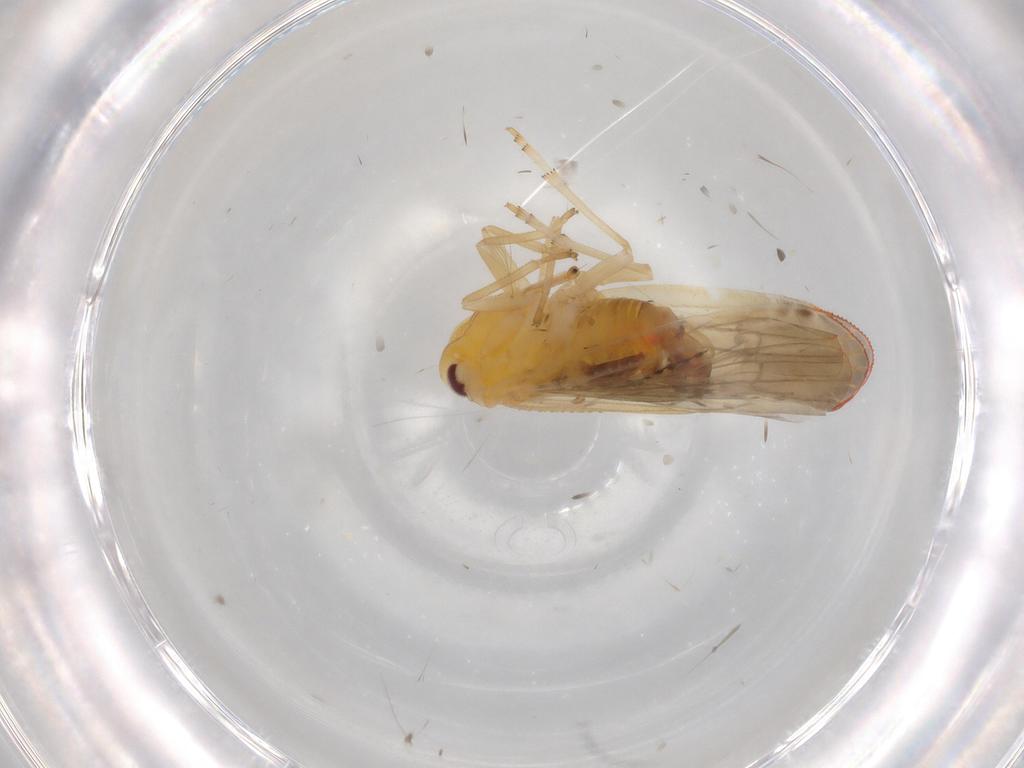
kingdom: Animalia
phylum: Arthropoda
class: Insecta
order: Hemiptera
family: Derbidae
